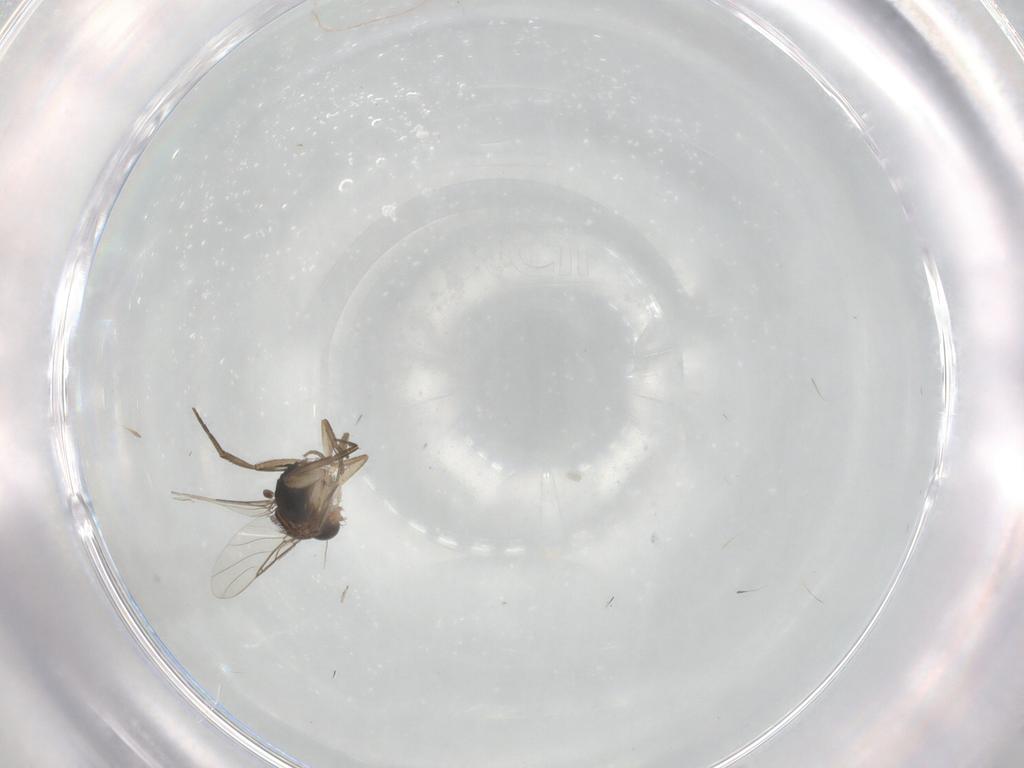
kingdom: Animalia
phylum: Arthropoda
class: Insecta
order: Diptera
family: Phoridae
